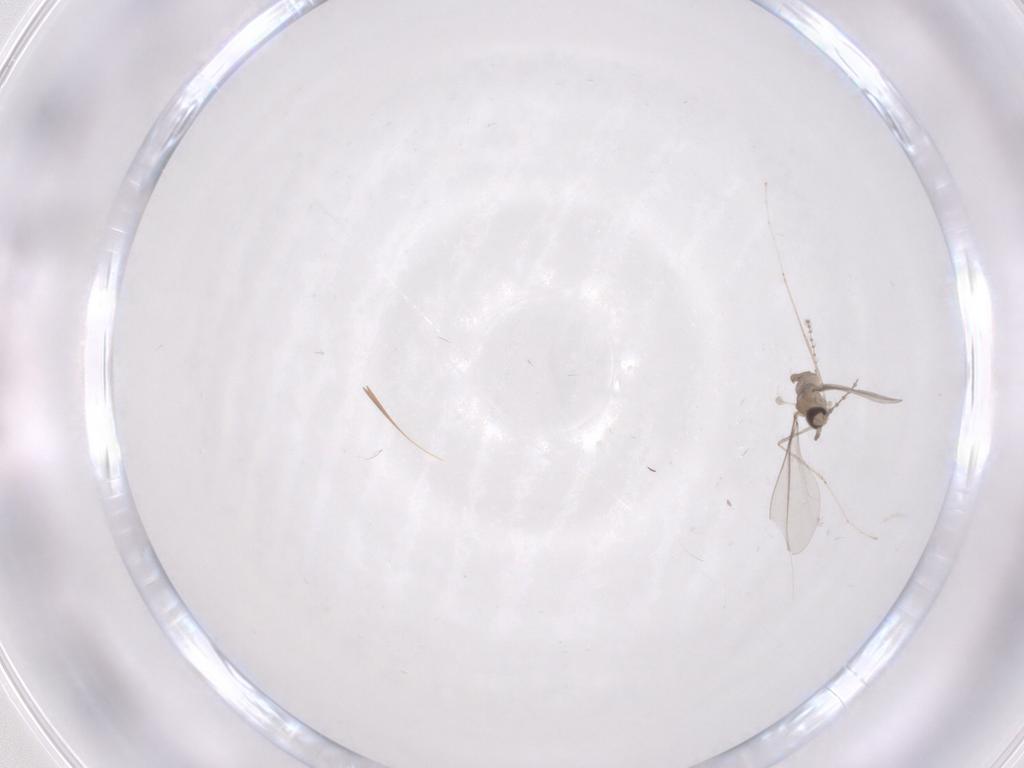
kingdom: Animalia
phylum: Arthropoda
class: Insecta
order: Diptera
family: Cecidomyiidae
